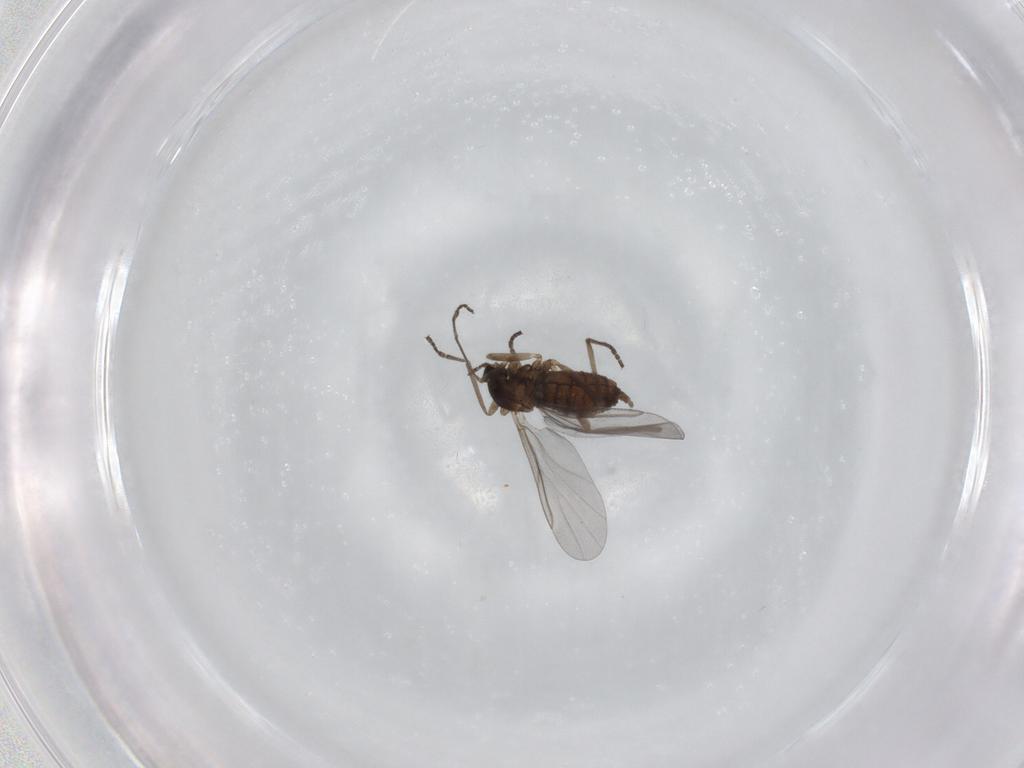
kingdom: Animalia
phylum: Arthropoda
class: Insecta
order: Diptera
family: Cecidomyiidae
